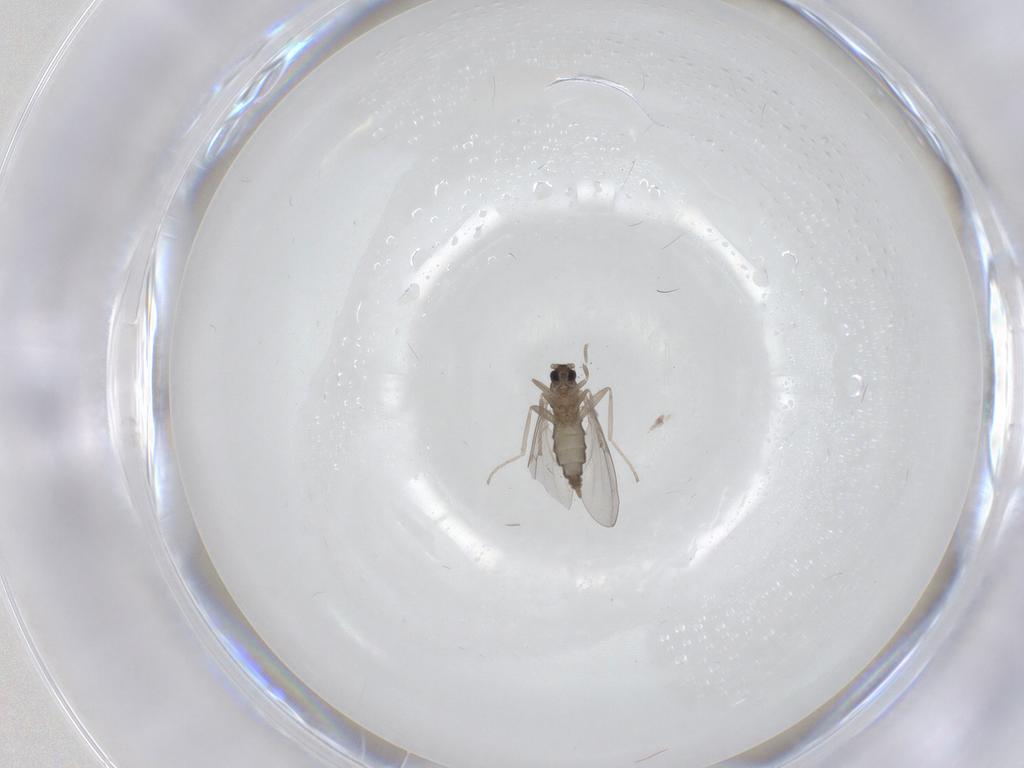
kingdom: Animalia
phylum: Arthropoda
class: Insecta
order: Diptera
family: Cecidomyiidae
